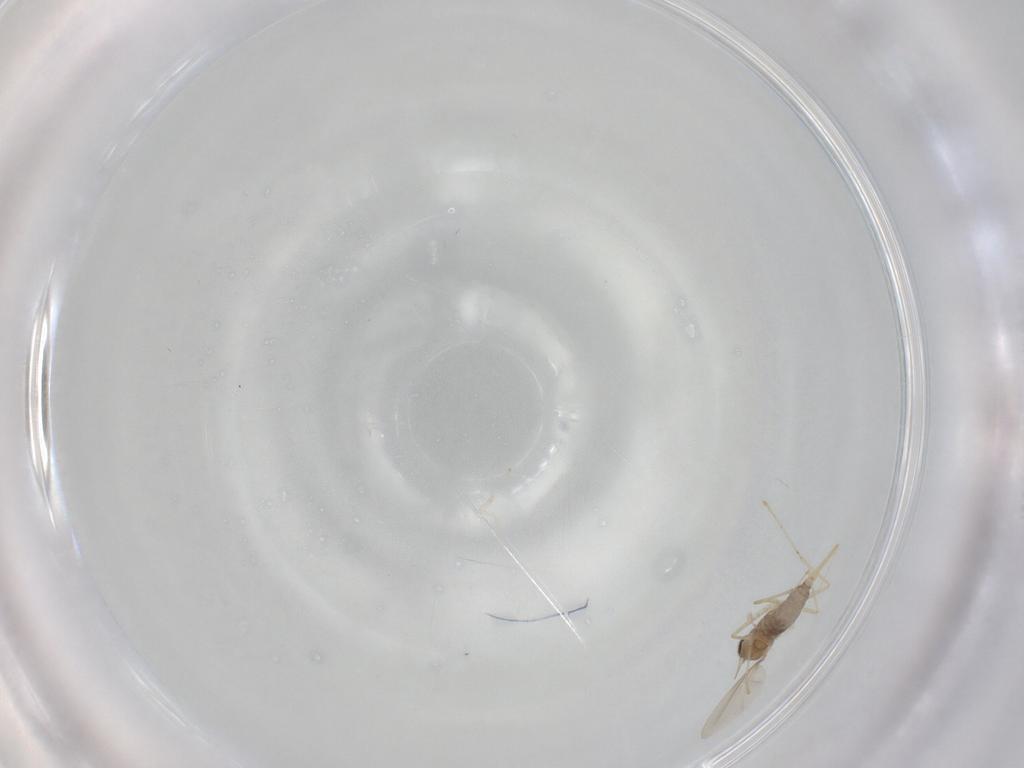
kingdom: Animalia
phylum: Arthropoda
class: Insecta
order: Diptera
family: Cecidomyiidae
